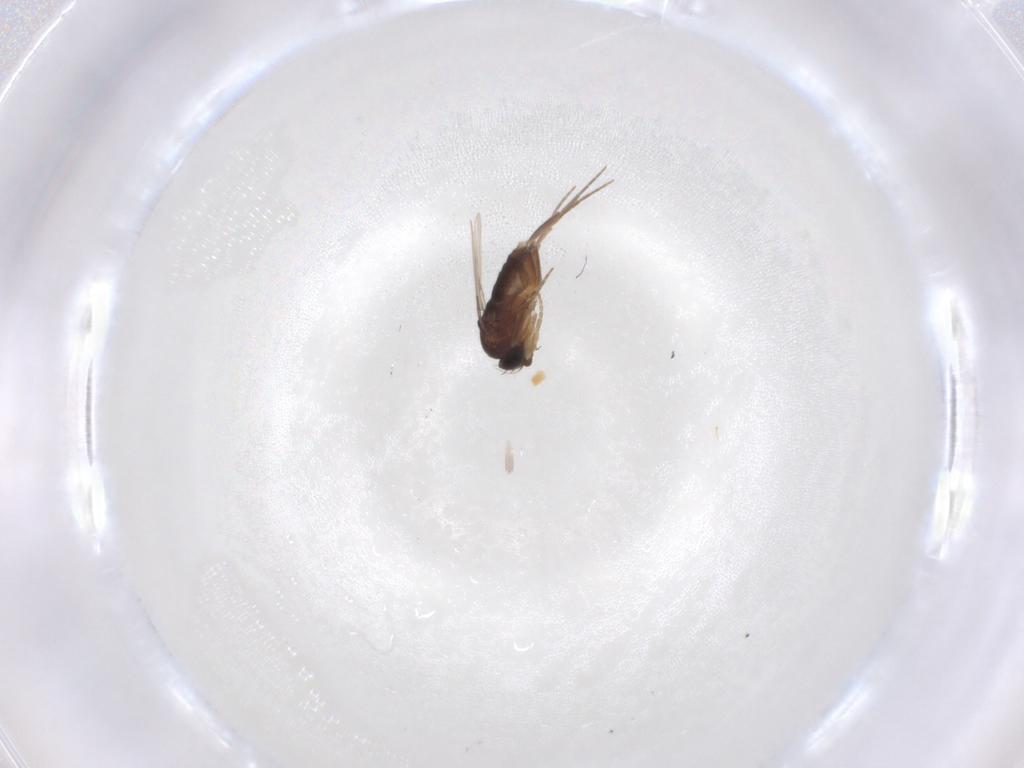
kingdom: Animalia
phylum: Arthropoda
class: Insecta
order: Diptera
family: Phoridae
